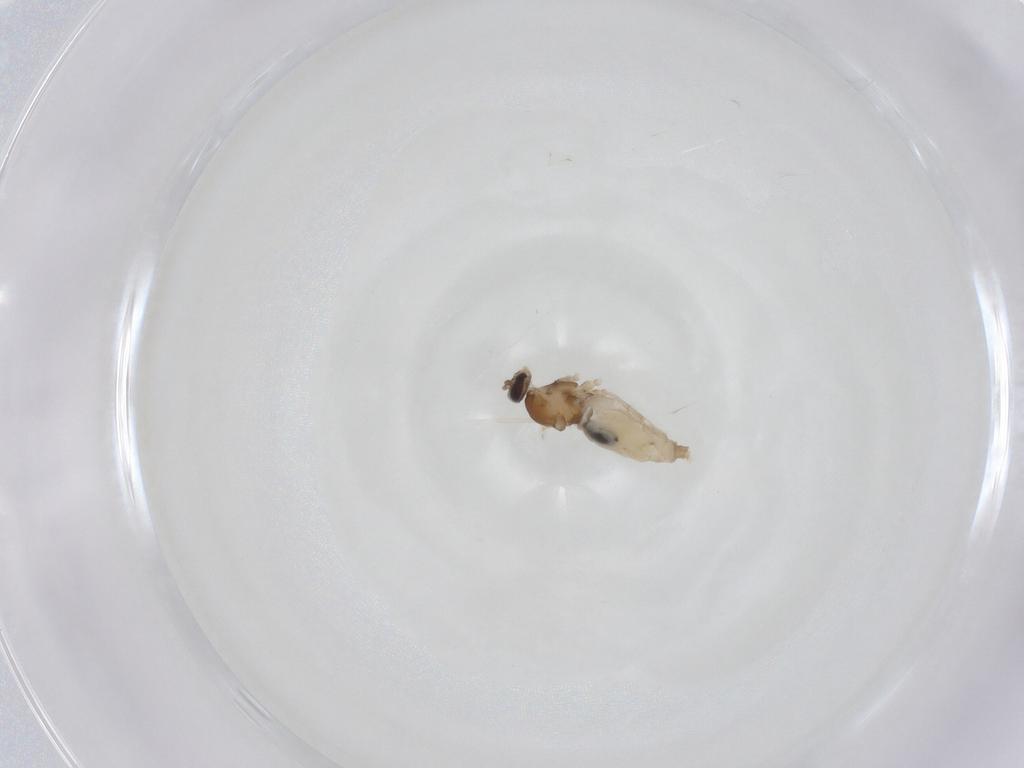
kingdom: Animalia
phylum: Arthropoda
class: Insecta
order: Diptera
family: Cecidomyiidae
